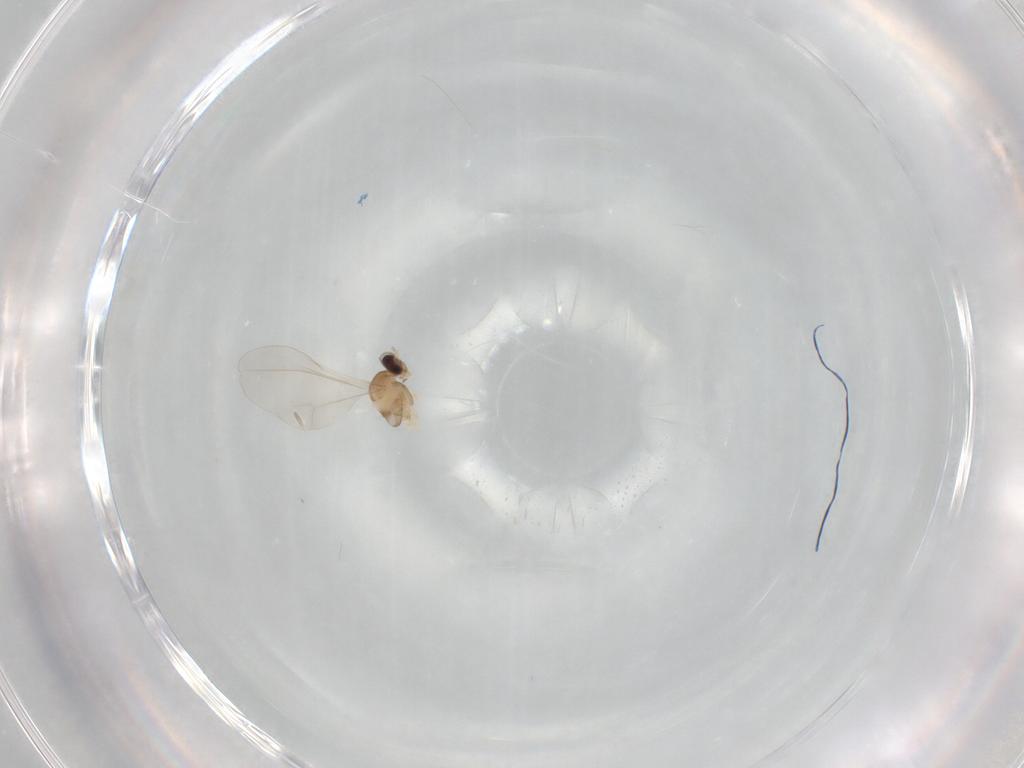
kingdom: Animalia
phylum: Arthropoda
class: Insecta
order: Diptera
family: Cecidomyiidae
